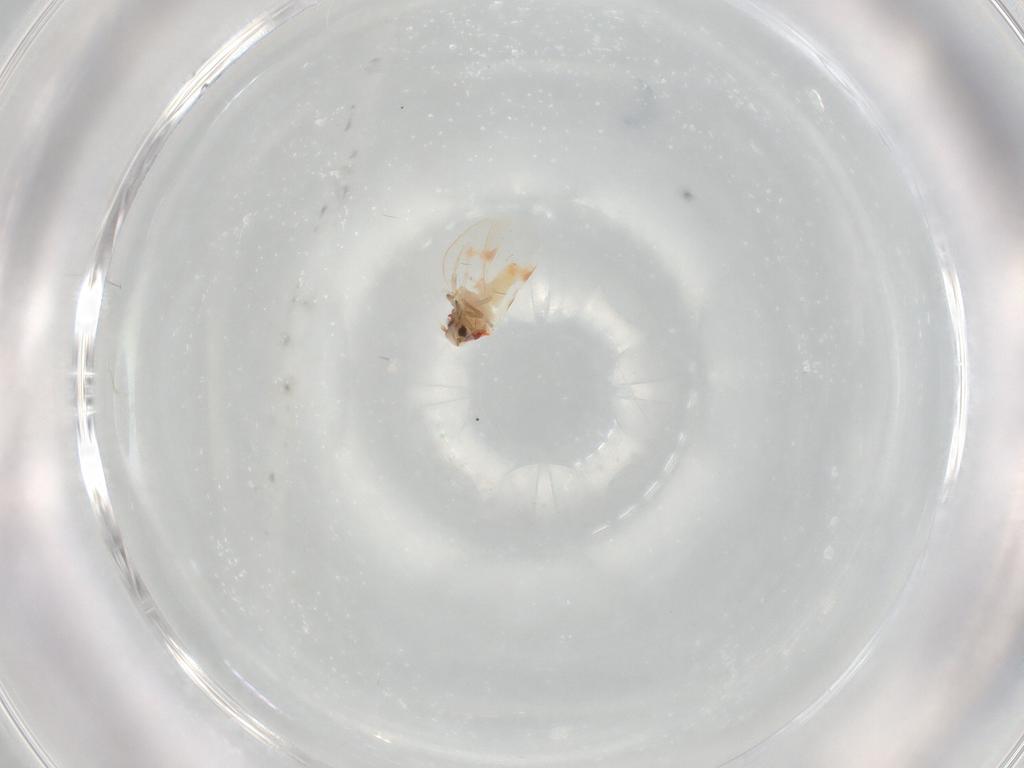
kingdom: Animalia
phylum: Arthropoda
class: Insecta
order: Hemiptera
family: Aleyrodidae
